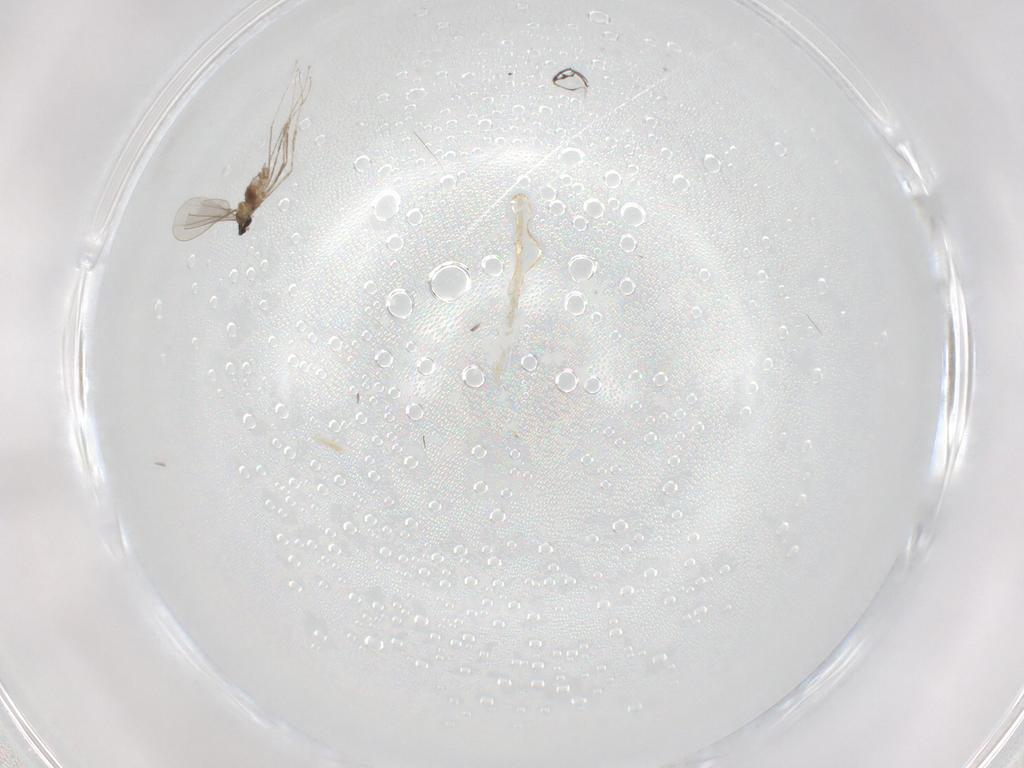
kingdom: Animalia
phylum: Arthropoda
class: Insecta
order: Diptera
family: Cecidomyiidae
